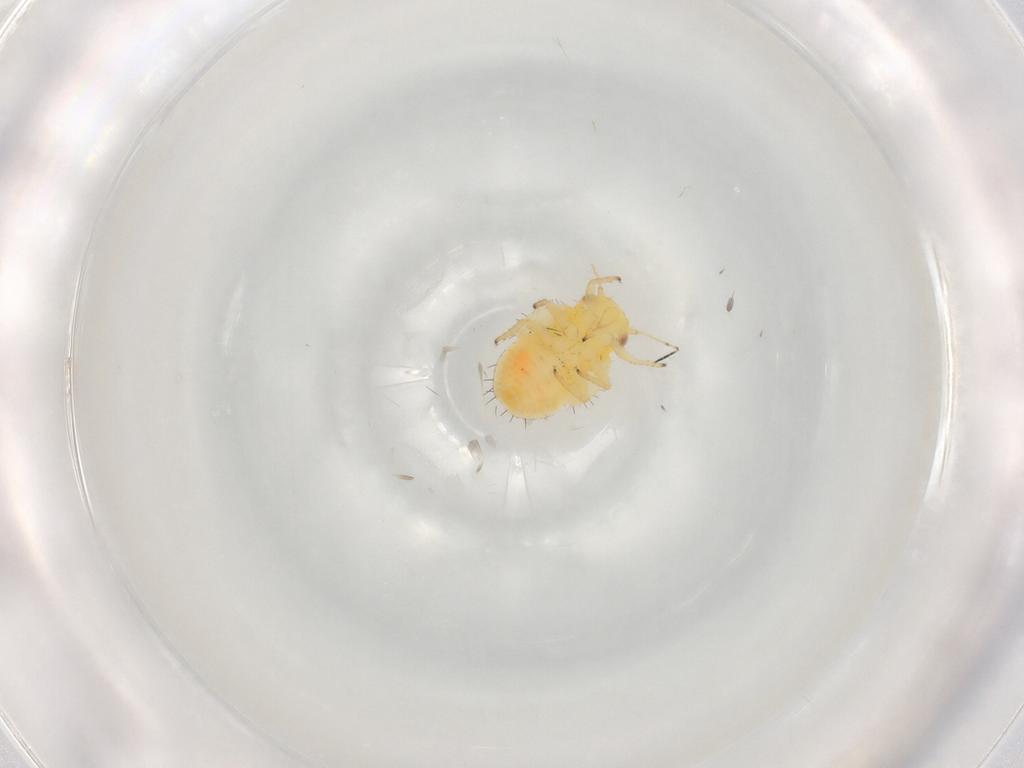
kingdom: Animalia
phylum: Arthropoda
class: Insecta
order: Hemiptera
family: Psyllidae
